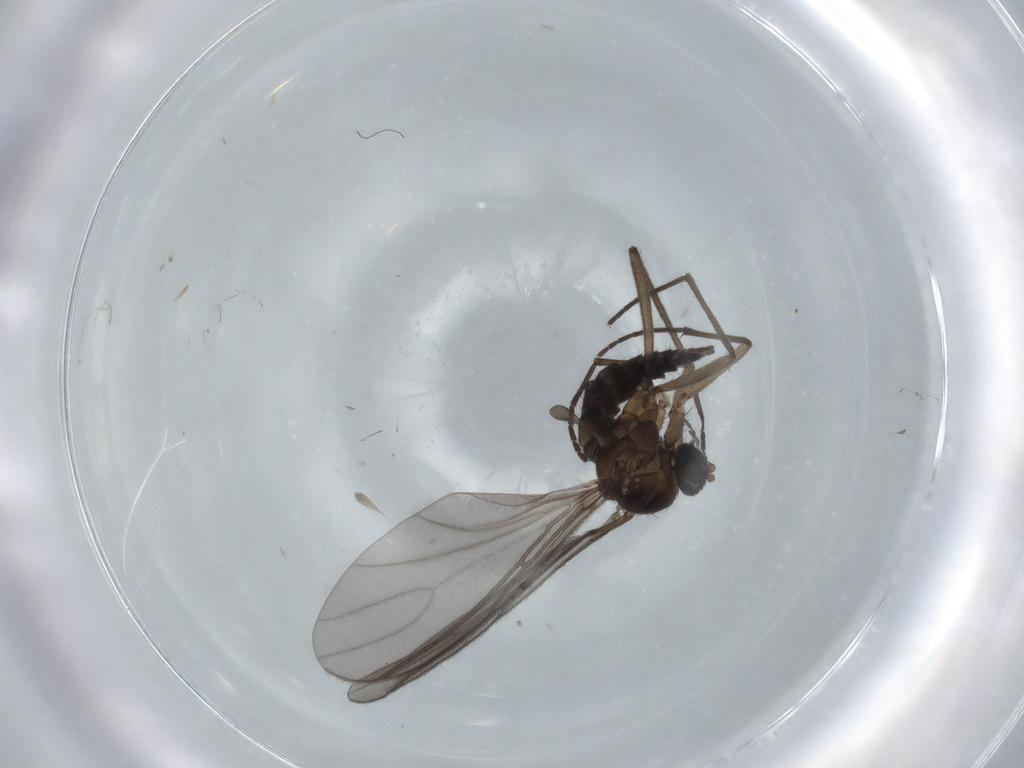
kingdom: Animalia
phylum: Arthropoda
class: Insecta
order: Diptera
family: Sciaridae
